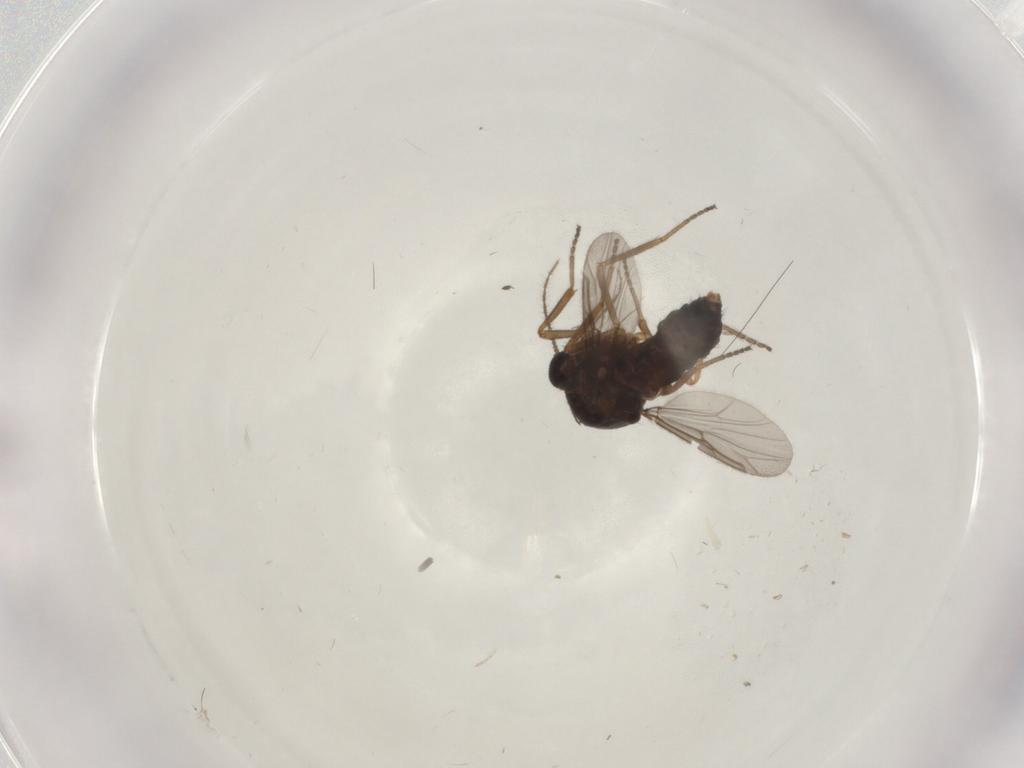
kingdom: Animalia
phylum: Arthropoda
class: Insecta
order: Diptera
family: Ceratopogonidae
